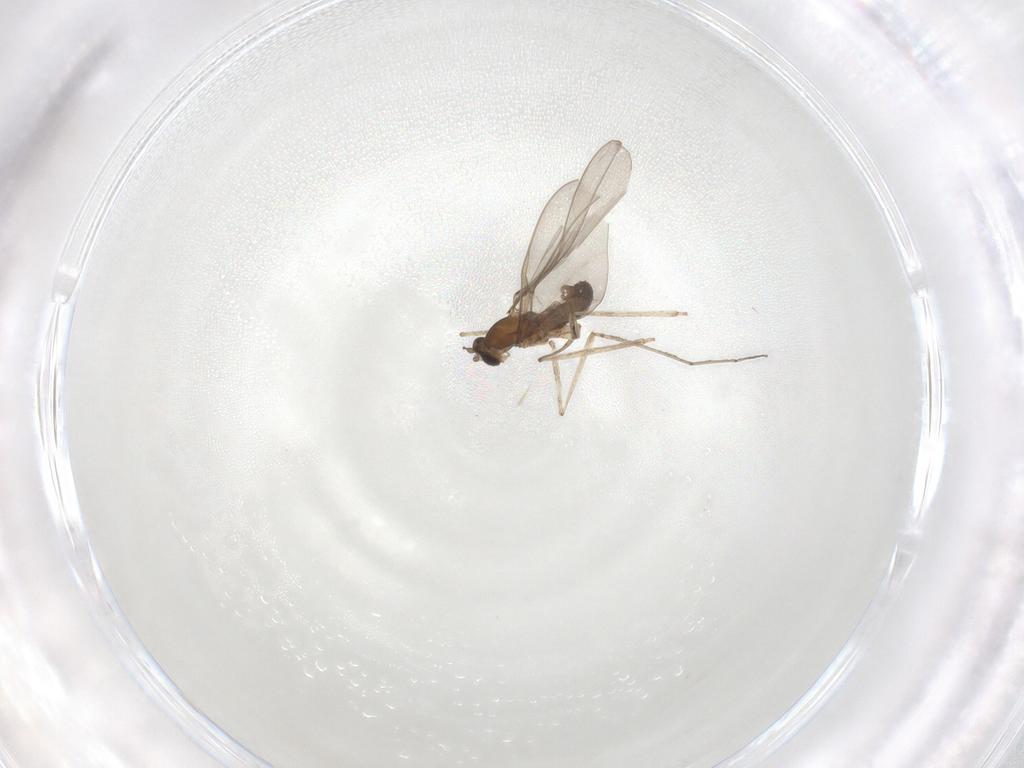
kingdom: Animalia
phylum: Arthropoda
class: Insecta
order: Diptera
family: Cecidomyiidae
